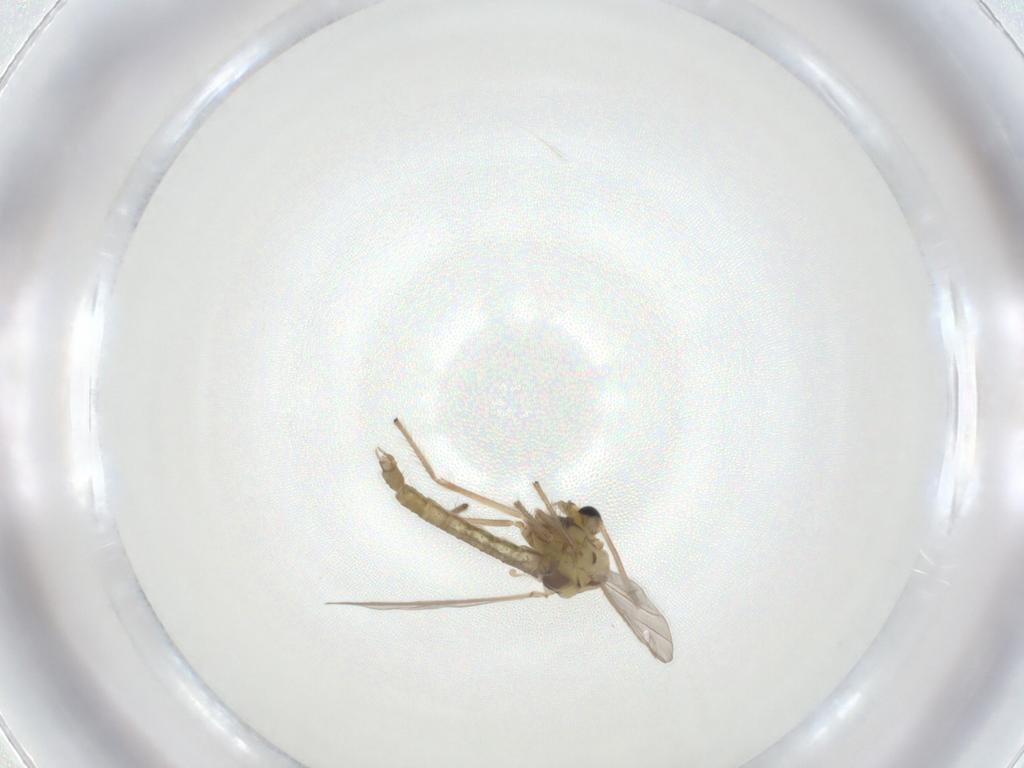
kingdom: Animalia
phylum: Arthropoda
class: Insecta
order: Diptera
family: Chironomidae
